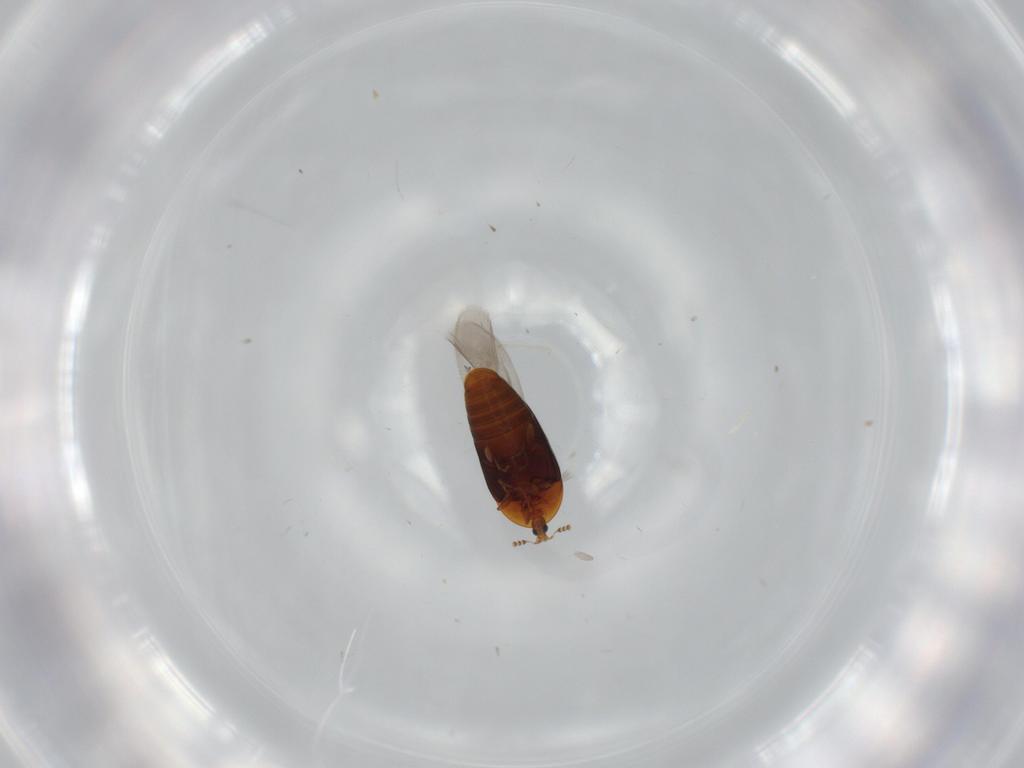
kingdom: Animalia
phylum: Arthropoda
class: Insecta
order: Coleoptera
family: Corylophidae
